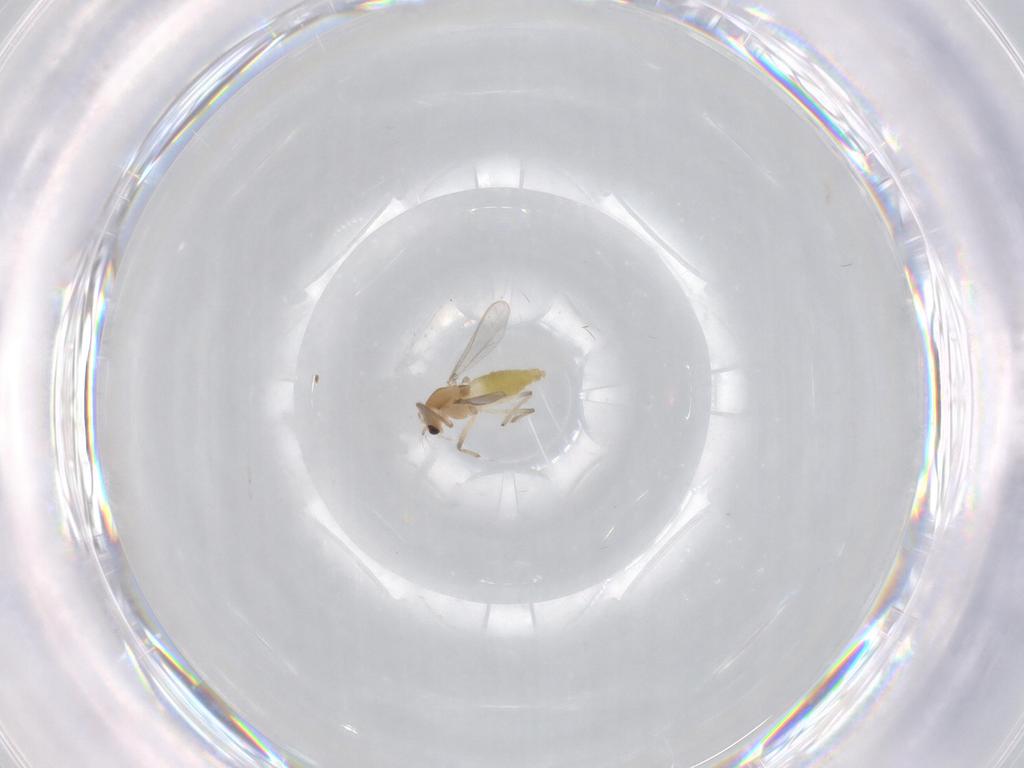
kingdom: Animalia
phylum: Arthropoda
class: Insecta
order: Diptera
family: Chironomidae
